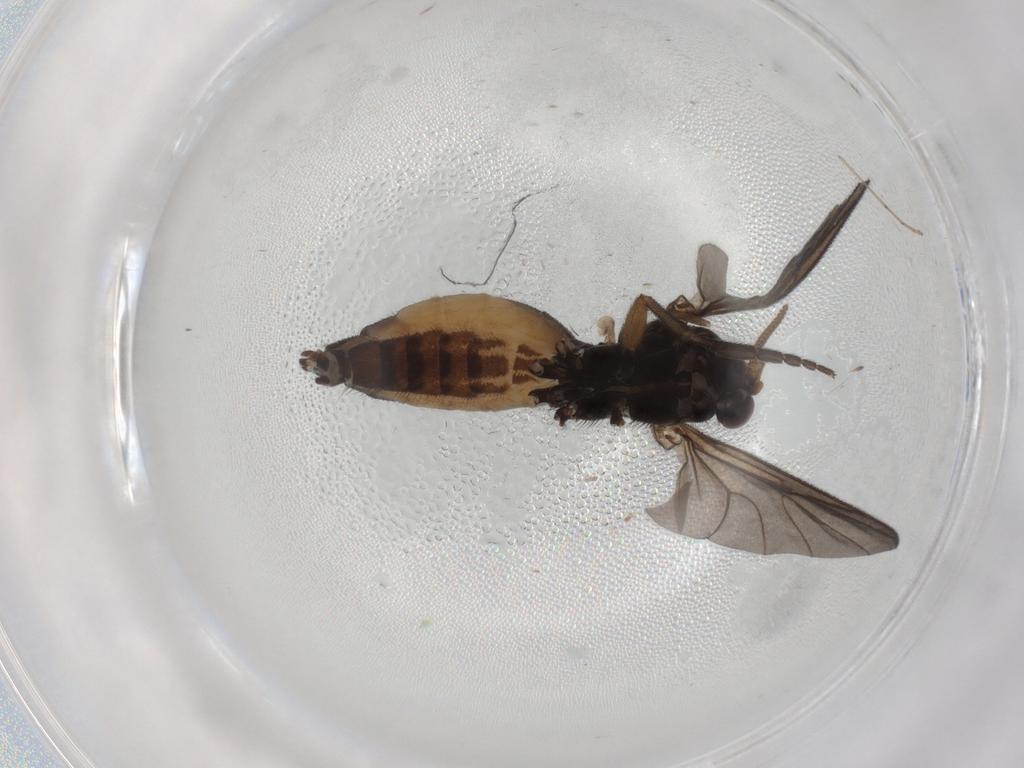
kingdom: Animalia
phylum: Arthropoda
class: Insecta
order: Diptera
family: Mycetophilidae
